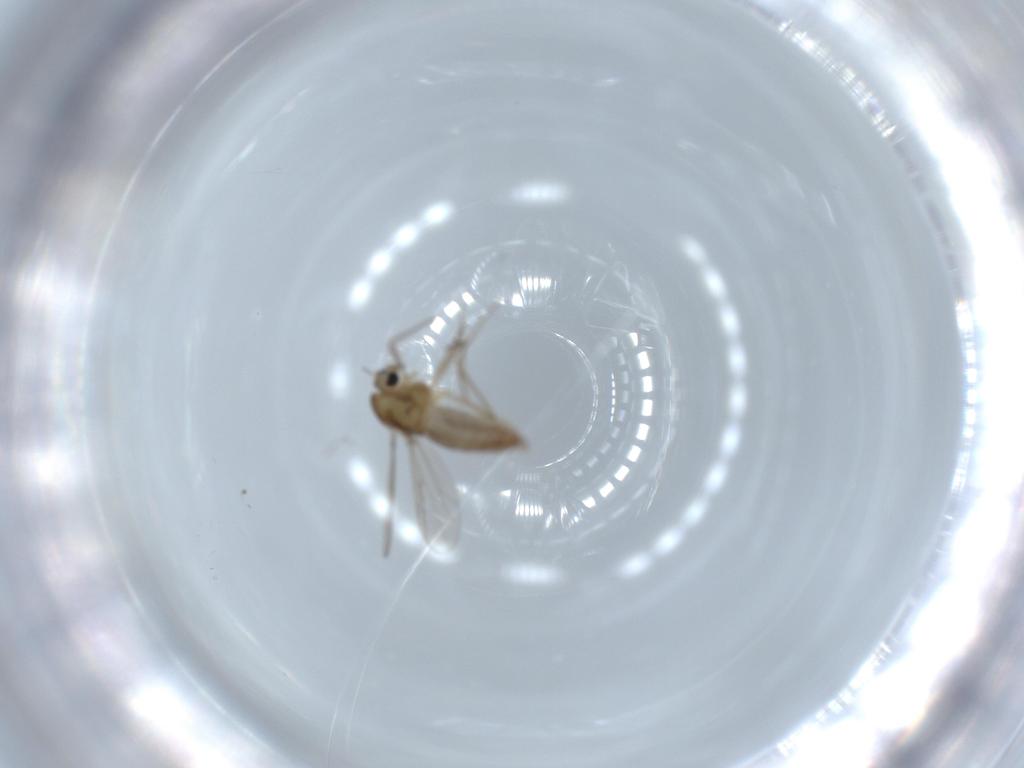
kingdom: Animalia
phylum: Arthropoda
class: Insecta
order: Diptera
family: Chironomidae
